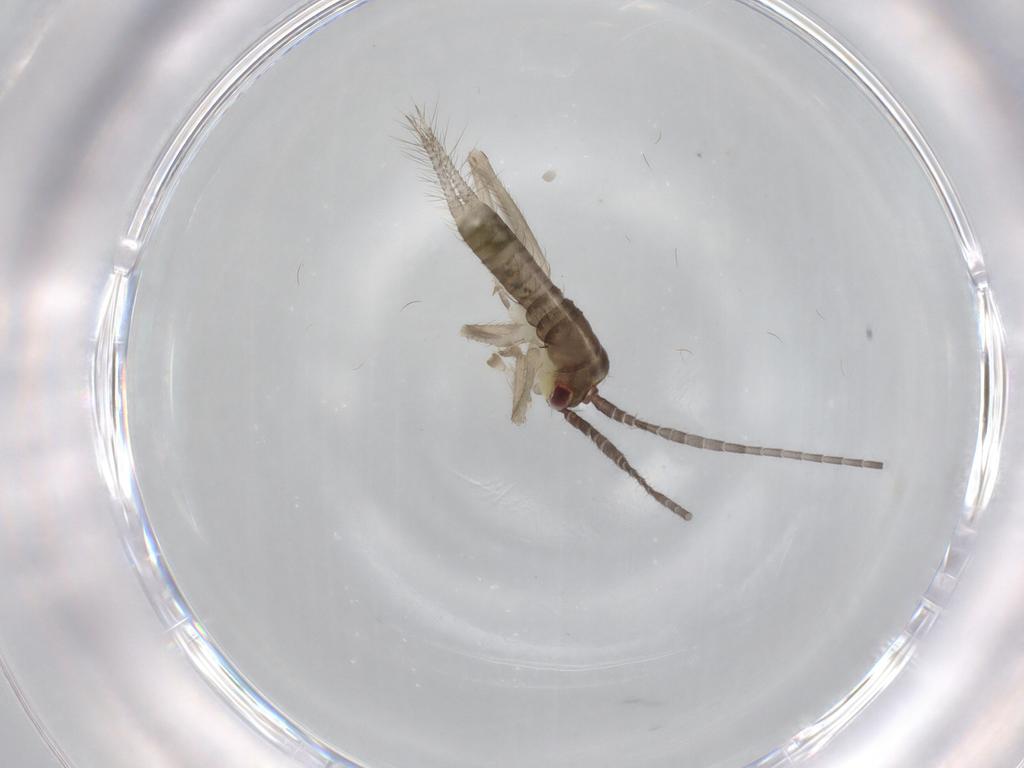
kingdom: Animalia
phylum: Arthropoda
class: Insecta
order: Orthoptera
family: Gryllidae
